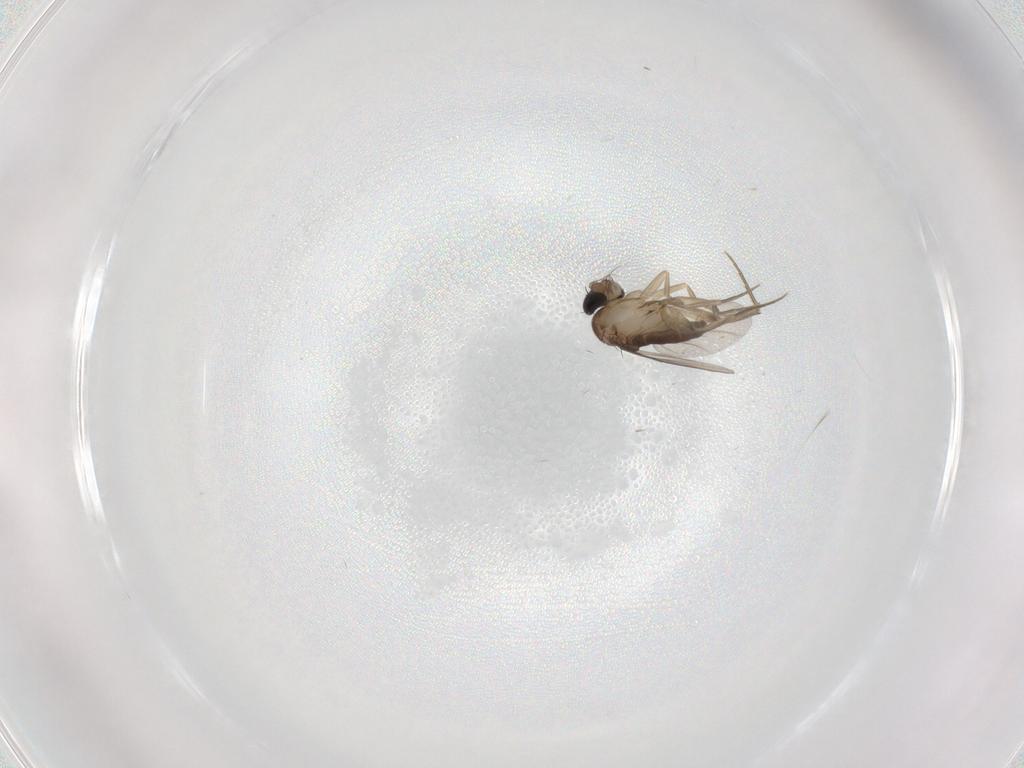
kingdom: Animalia
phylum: Arthropoda
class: Insecta
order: Diptera
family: Phoridae
